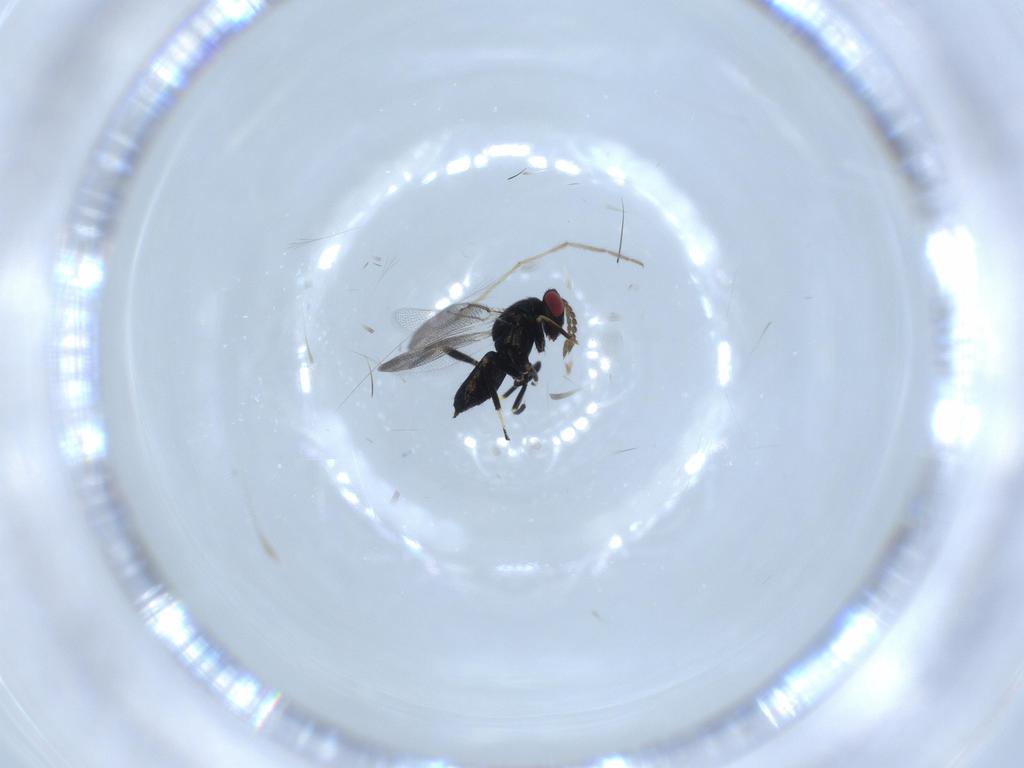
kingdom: Animalia
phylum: Arthropoda
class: Insecta
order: Hymenoptera
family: Eulophidae
